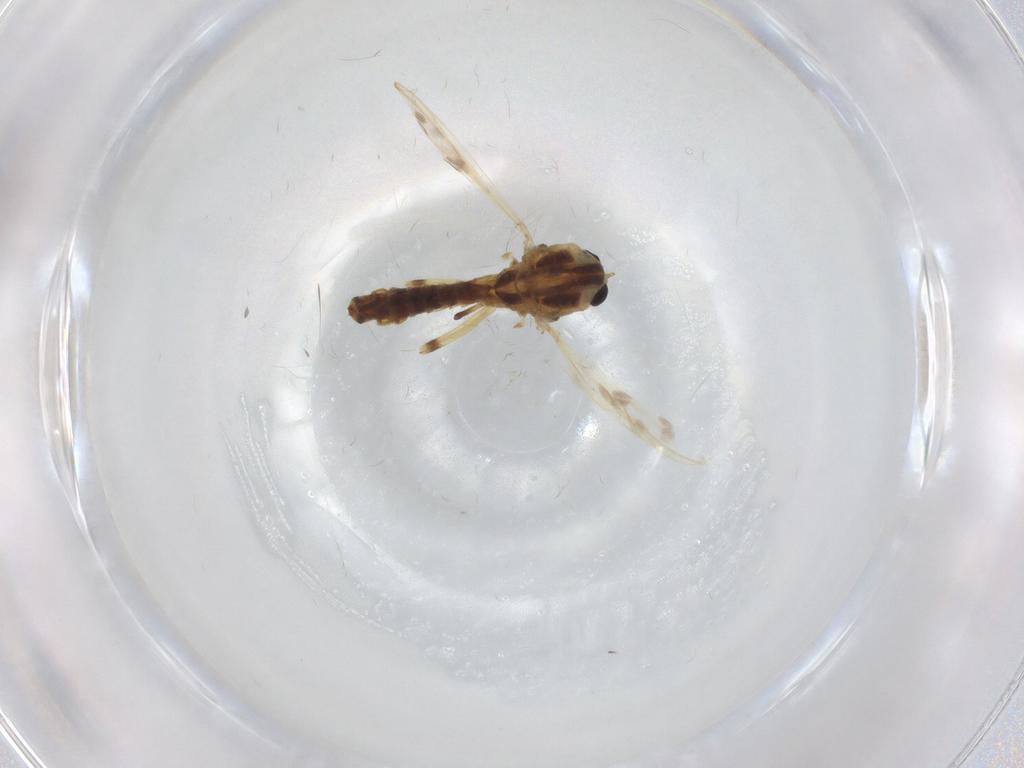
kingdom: Animalia
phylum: Arthropoda
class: Insecta
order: Diptera
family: Chironomidae
